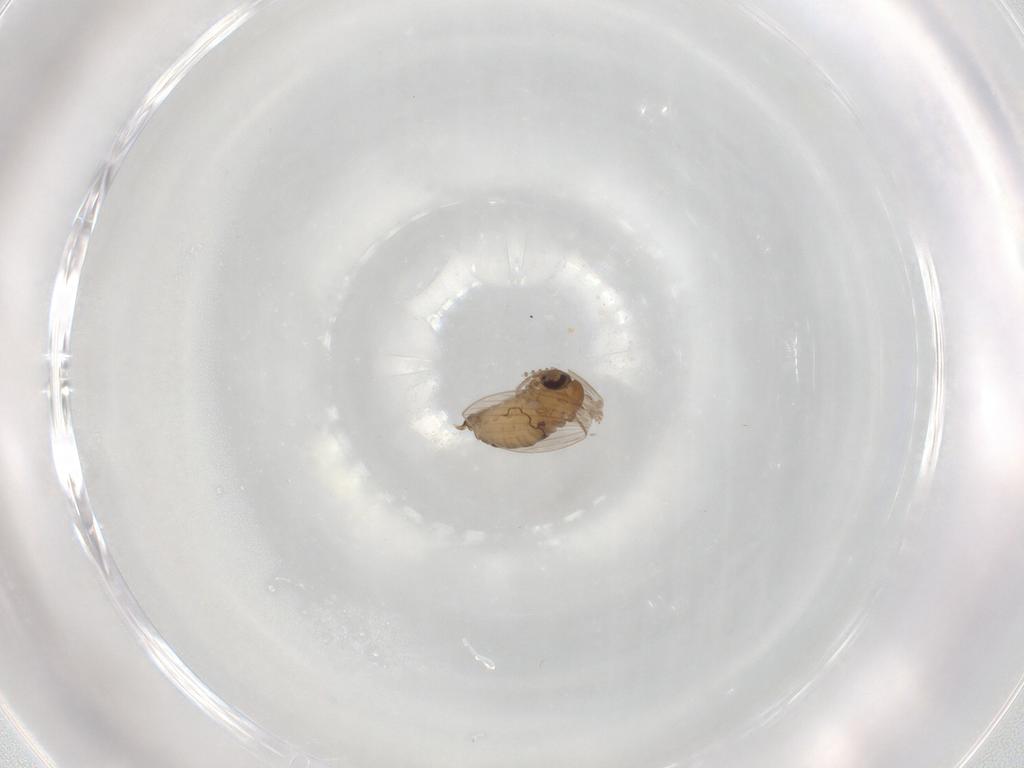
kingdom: Animalia
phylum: Arthropoda
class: Insecta
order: Diptera
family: Psychodidae
